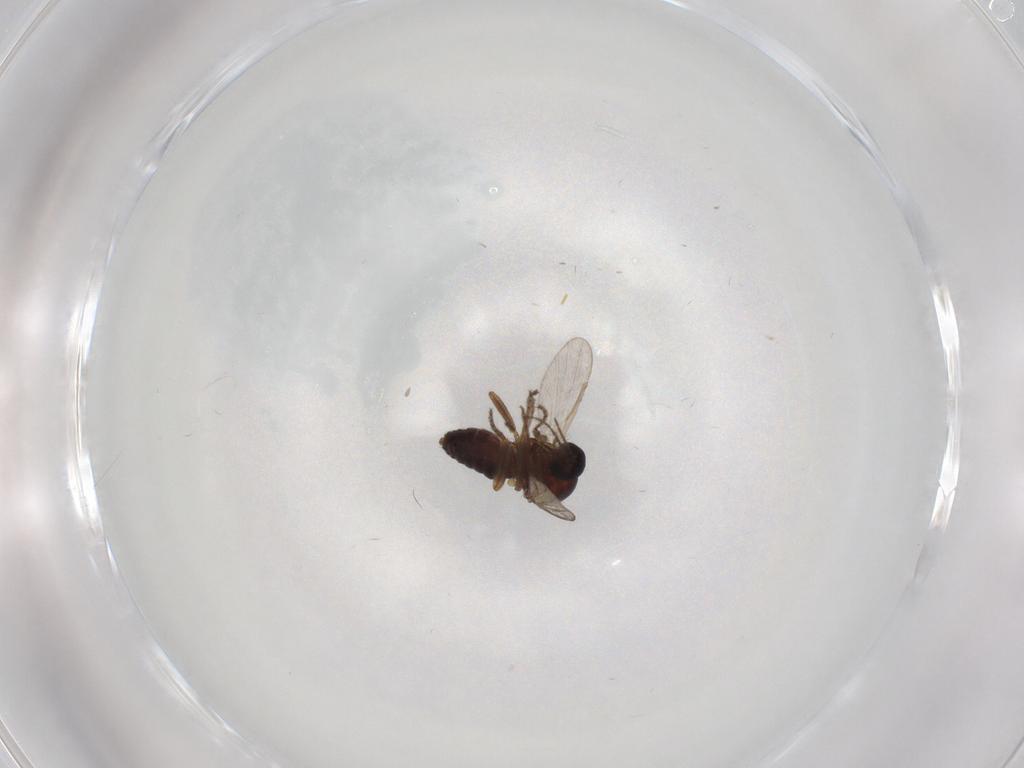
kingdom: Animalia
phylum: Arthropoda
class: Insecta
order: Diptera
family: Ceratopogonidae
